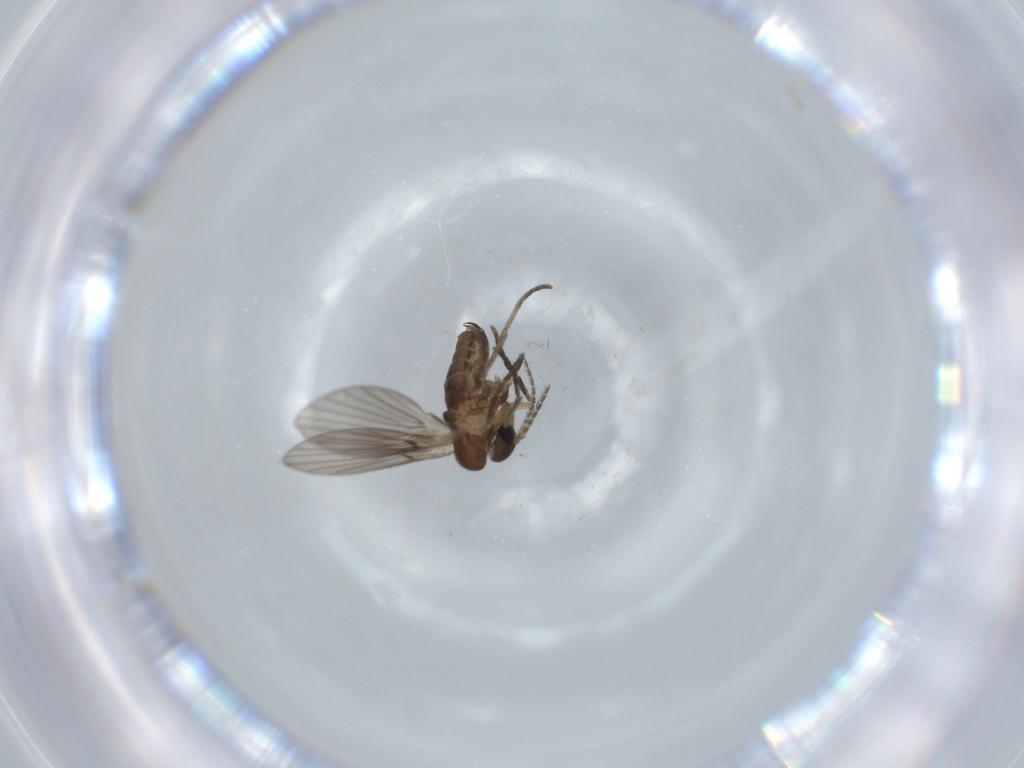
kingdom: Animalia
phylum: Arthropoda
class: Insecta
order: Diptera
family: Psychodidae
